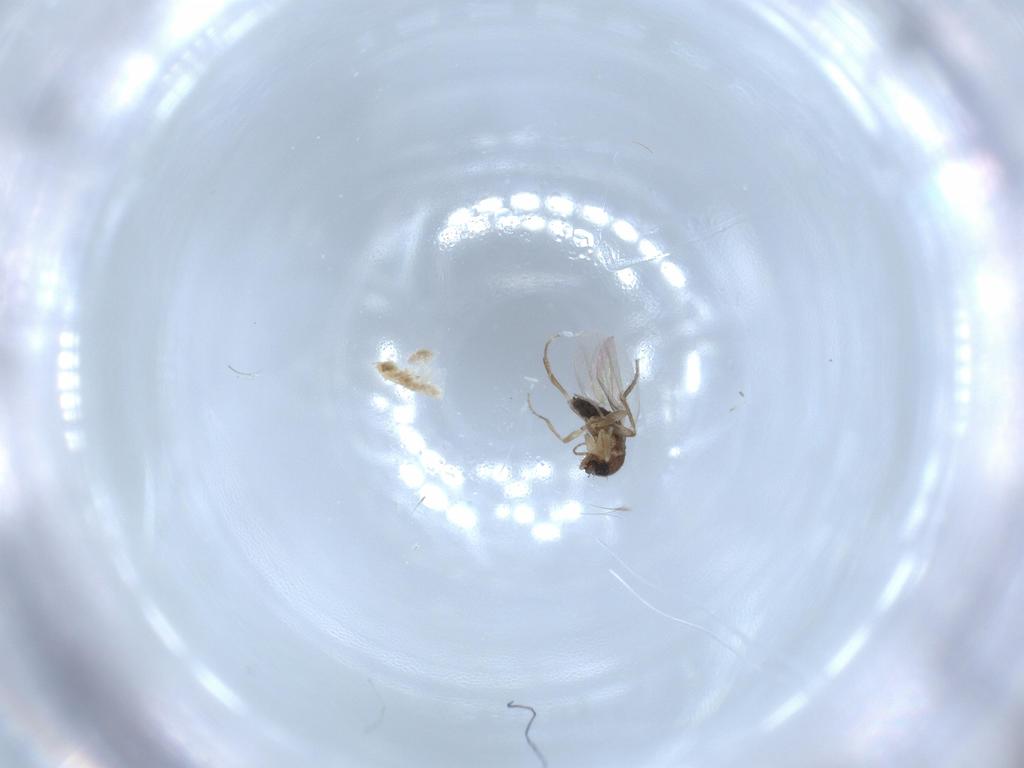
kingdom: Animalia
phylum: Arthropoda
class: Insecta
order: Diptera
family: Phoridae
